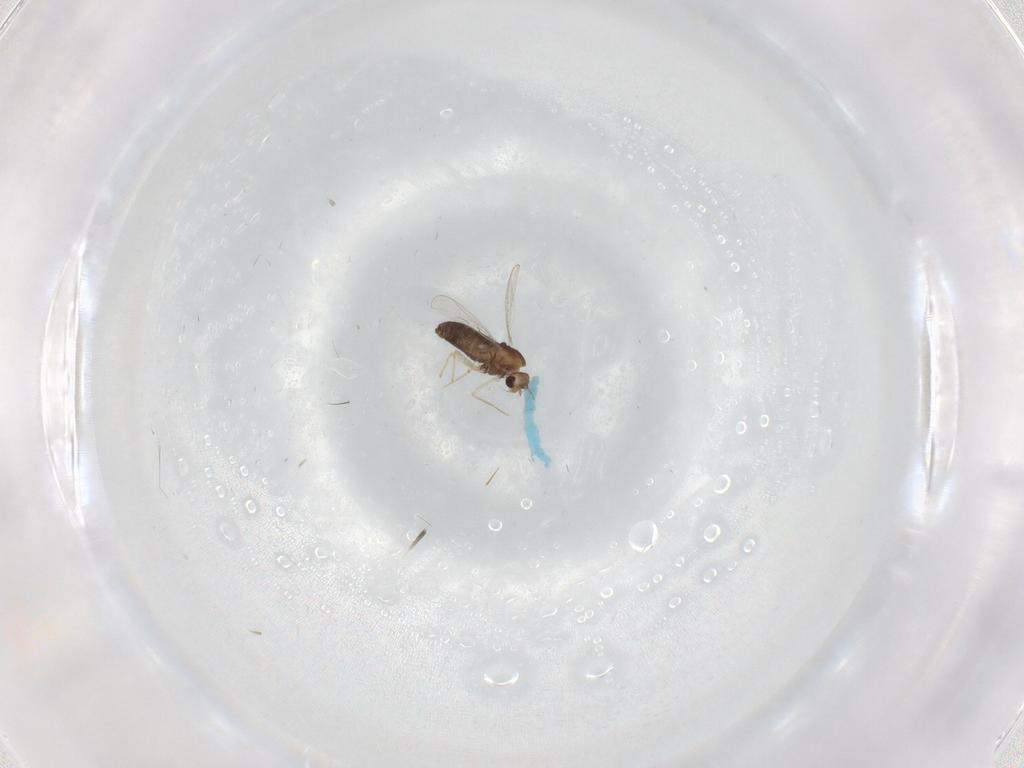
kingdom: Animalia
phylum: Arthropoda
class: Insecta
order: Diptera
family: Chironomidae
